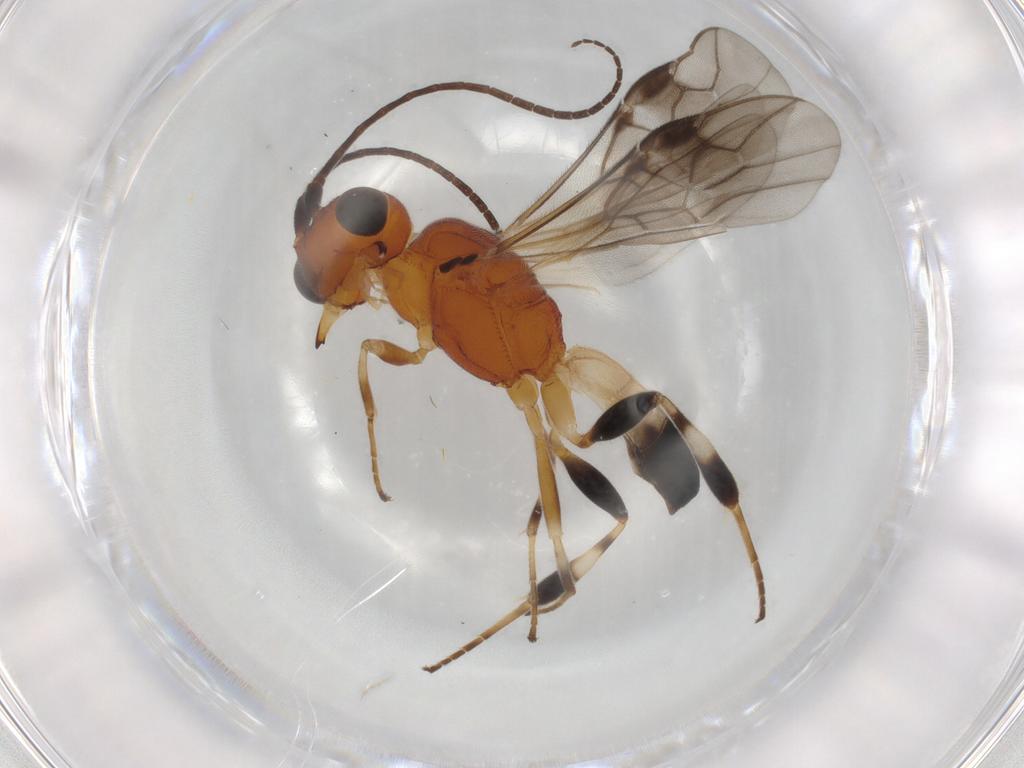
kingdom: Animalia
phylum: Arthropoda
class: Insecta
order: Hymenoptera
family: Braconidae
